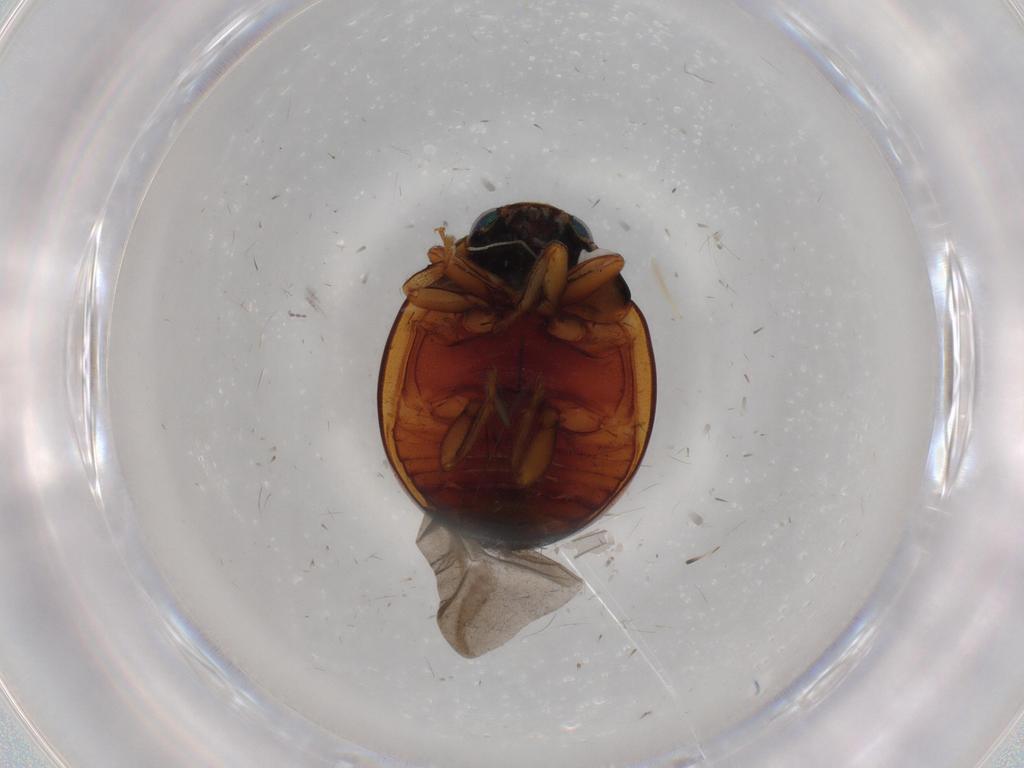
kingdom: Animalia
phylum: Arthropoda
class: Insecta
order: Coleoptera
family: Coccinellidae
